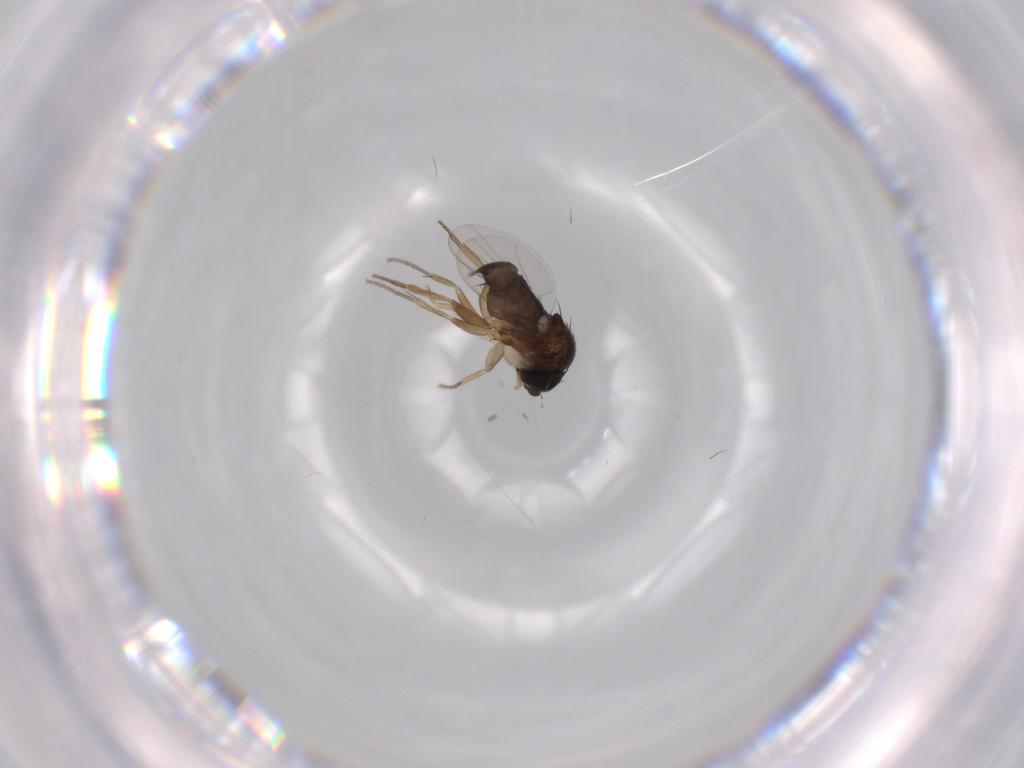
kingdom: Animalia
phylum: Arthropoda
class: Insecta
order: Diptera
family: Phoridae
